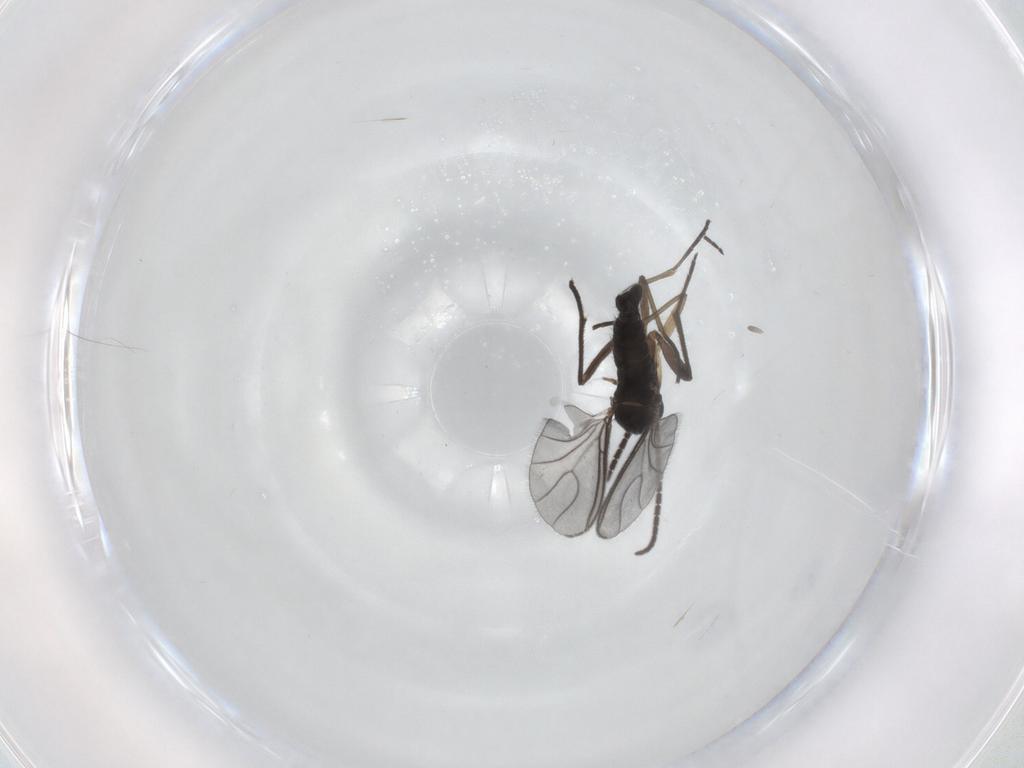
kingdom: Animalia
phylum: Arthropoda
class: Insecta
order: Diptera
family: Sciaridae
